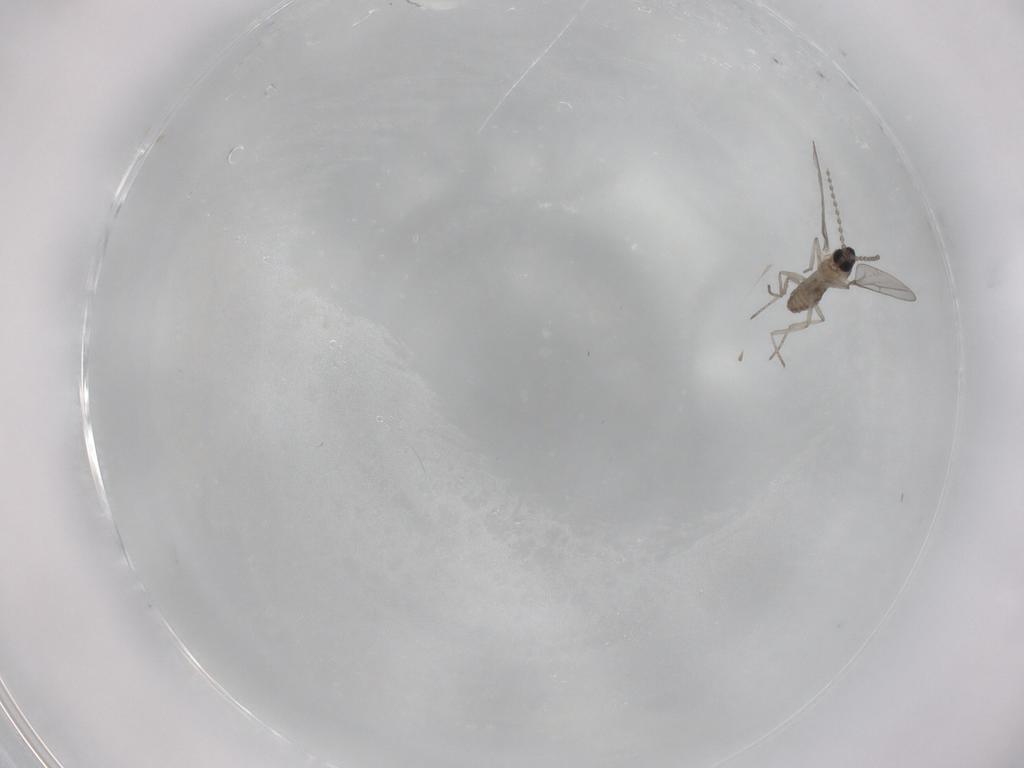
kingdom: Animalia
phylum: Arthropoda
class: Insecta
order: Diptera
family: Cecidomyiidae
